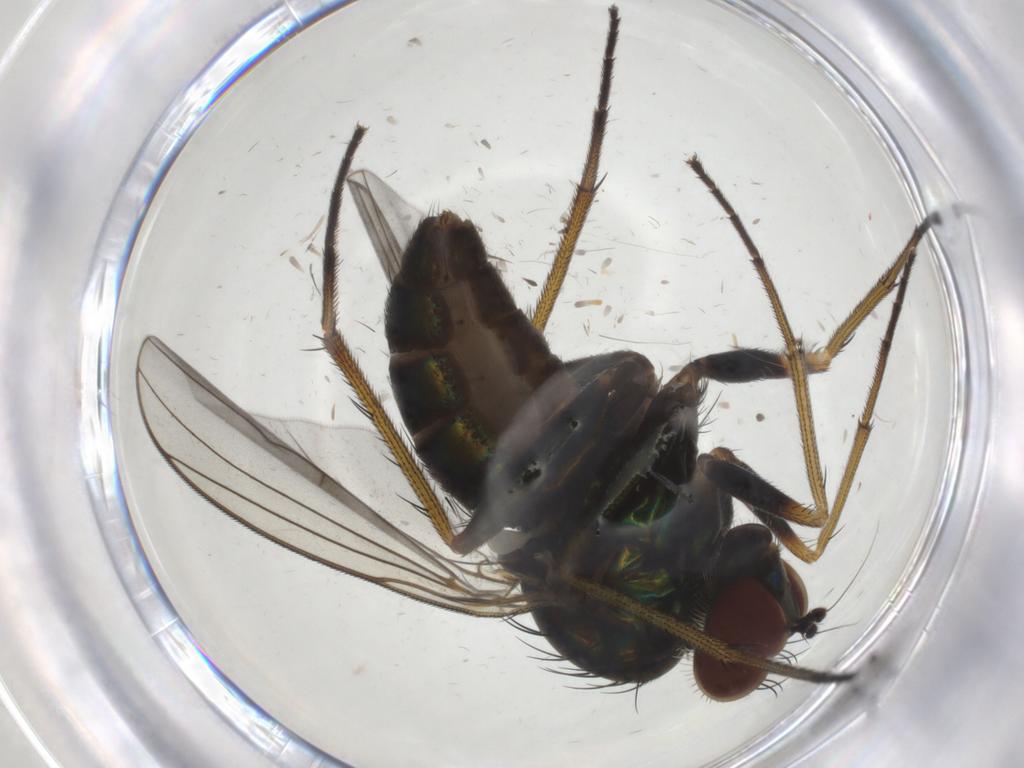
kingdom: Animalia
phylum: Arthropoda
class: Insecta
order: Diptera
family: Dolichopodidae
